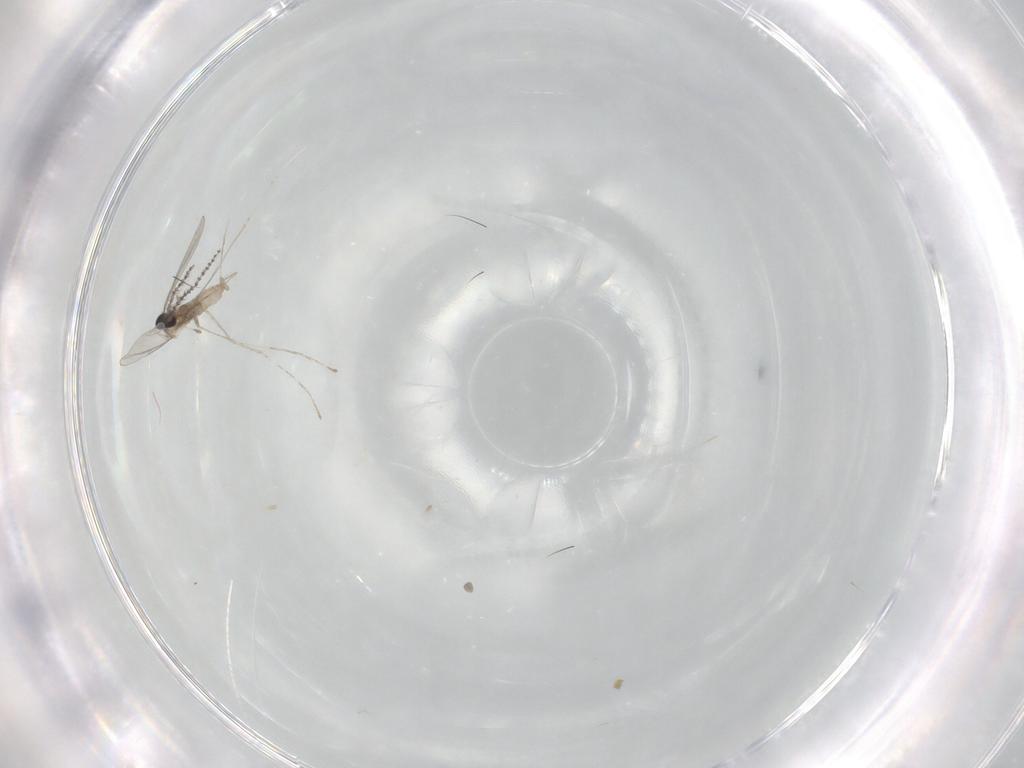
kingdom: Animalia
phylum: Arthropoda
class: Insecta
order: Diptera
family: Cecidomyiidae
